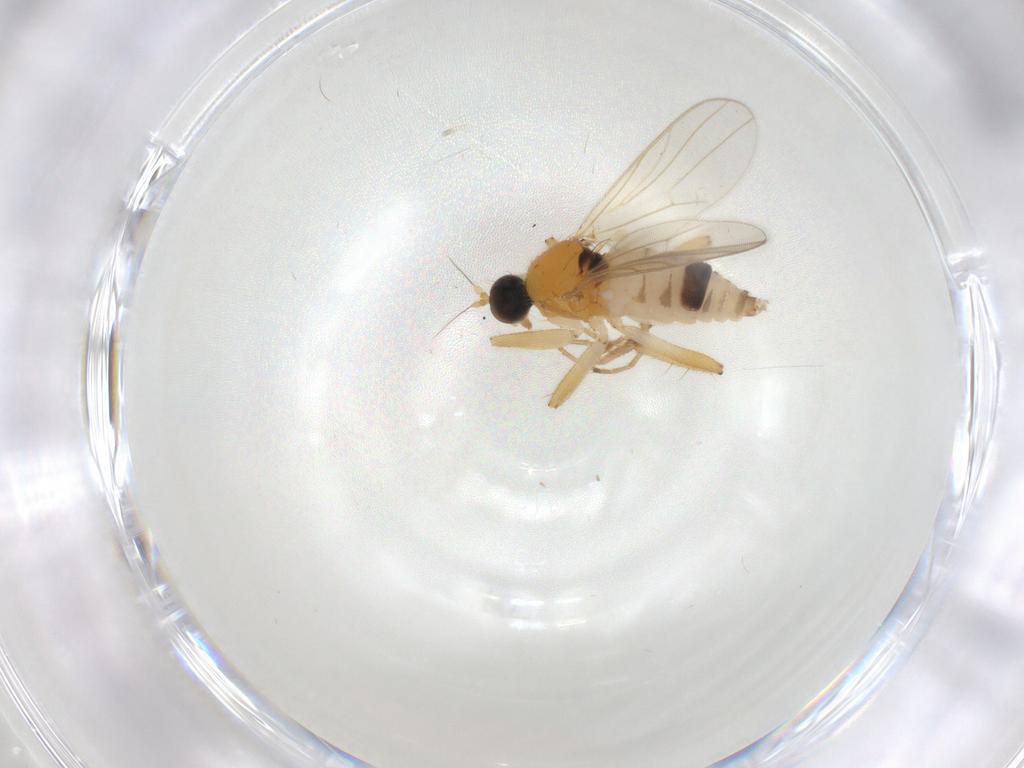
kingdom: Animalia
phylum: Arthropoda
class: Insecta
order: Diptera
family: Hybotidae
